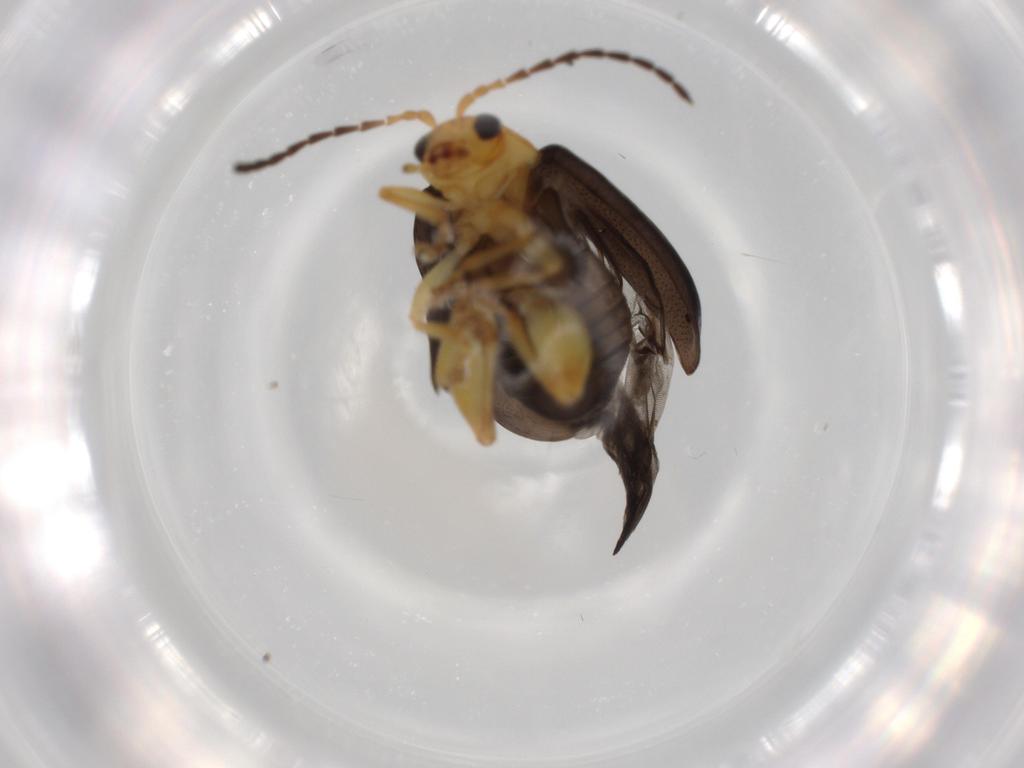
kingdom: Animalia
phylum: Arthropoda
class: Insecta
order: Coleoptera
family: Chrysomelidae
